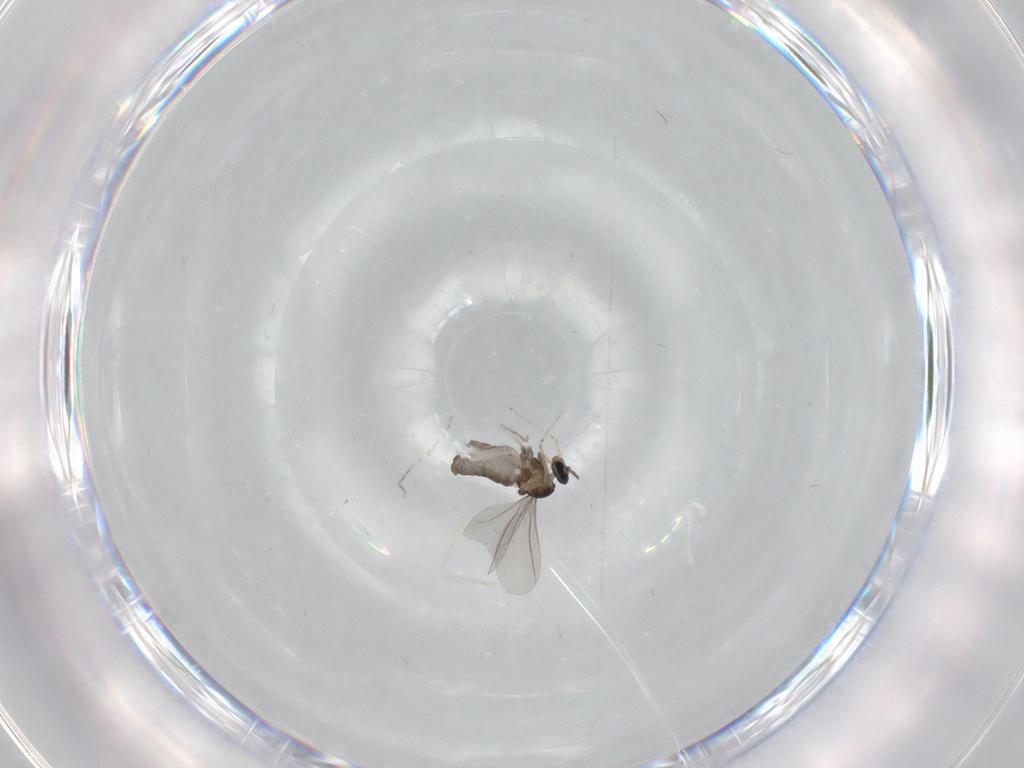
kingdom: Animalia
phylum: Arthropoda
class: Insecta
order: Diptera
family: Cecidomyiidae
